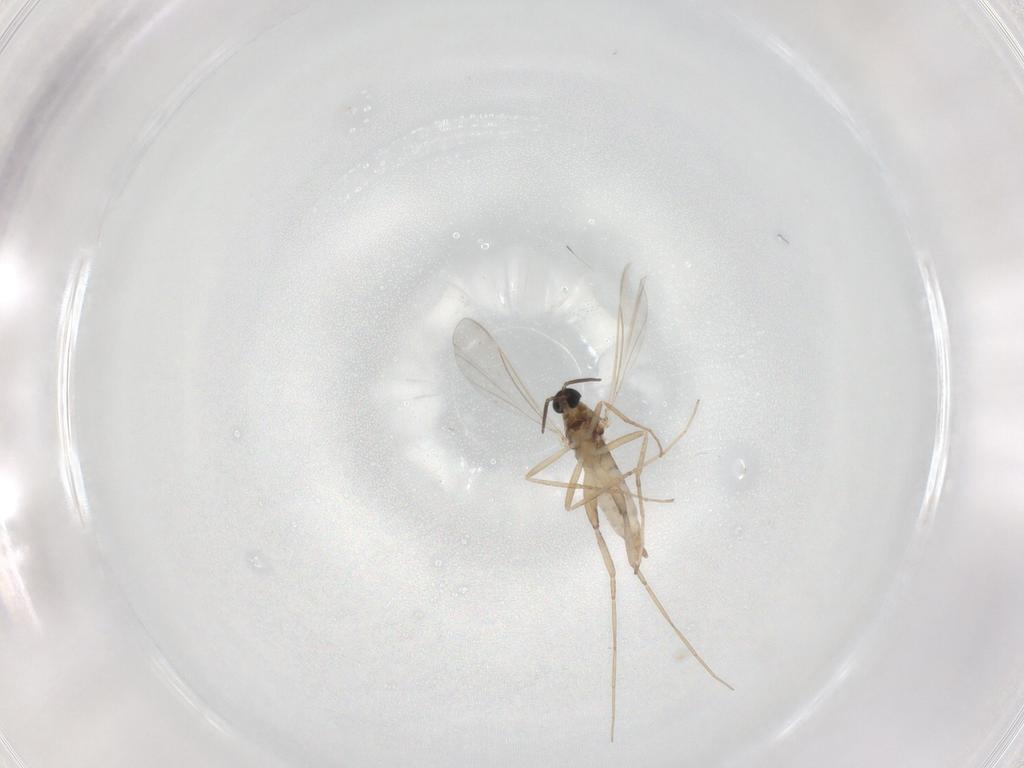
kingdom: Animalia
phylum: Arthropoda
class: Insecta
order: Diptera
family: Cecidomyiidae
